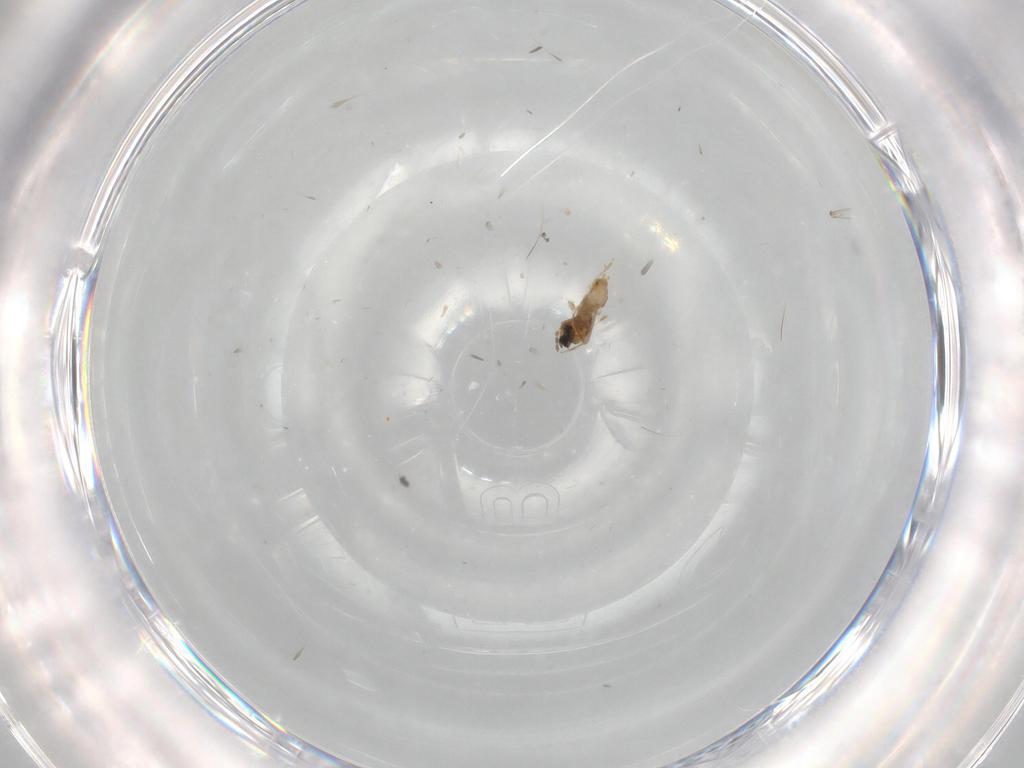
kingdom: Animalia
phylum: Arthropoda
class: Insecta
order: Diptera
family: Cecidomyiidae
